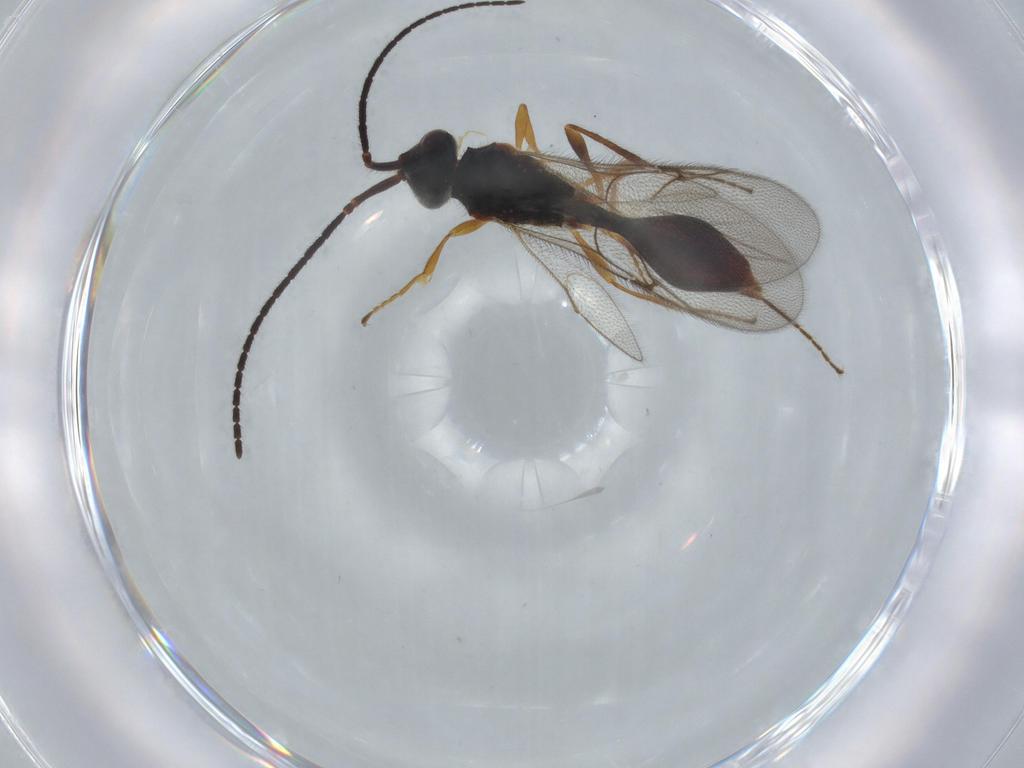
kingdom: Animalia
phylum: Arthropoda
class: Insecta
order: Hymenoptera
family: Diapriidae
